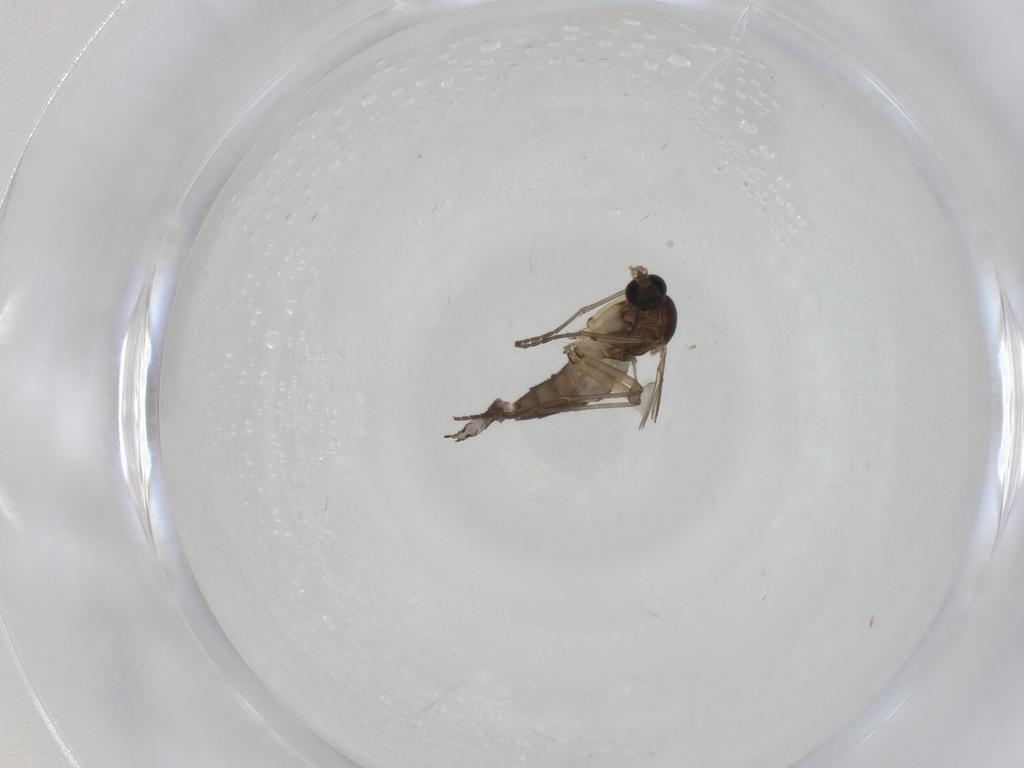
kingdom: Animalia
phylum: Arthropoda
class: Insecta
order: Diptera
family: Sciaridae
